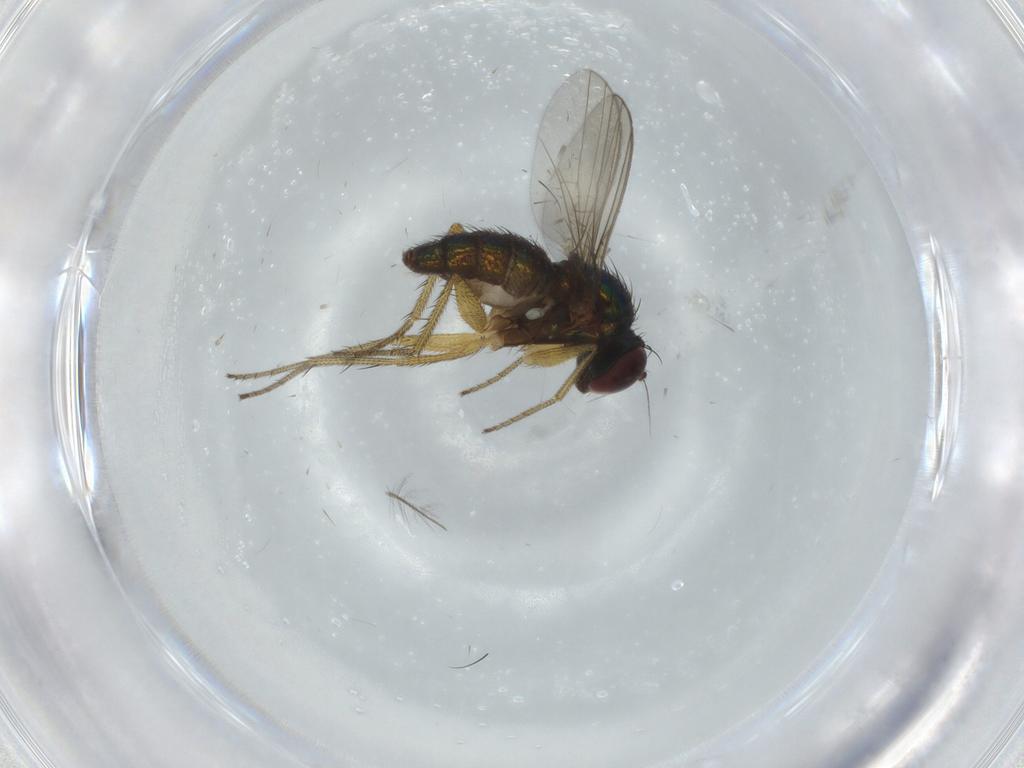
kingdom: Animalia
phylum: Arthropoda
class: Insecta
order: Diptera
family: Dolichopodidae
